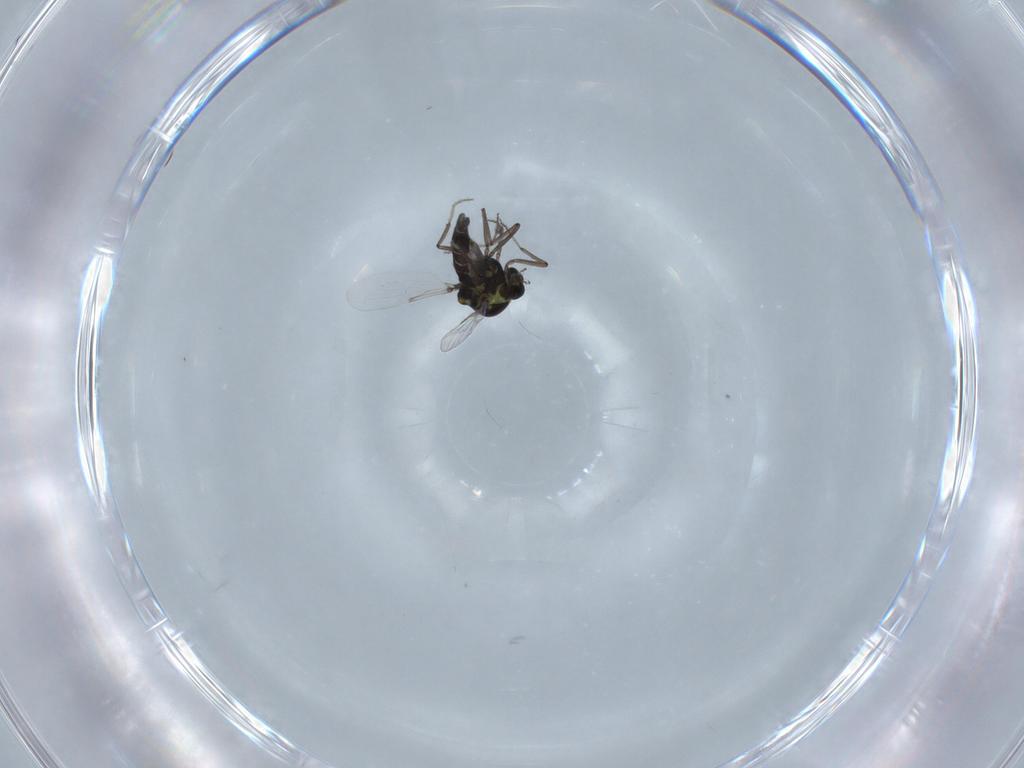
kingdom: Animalia
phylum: Arthropoda
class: Insecta
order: Diptera
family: Ceratopogonidae
